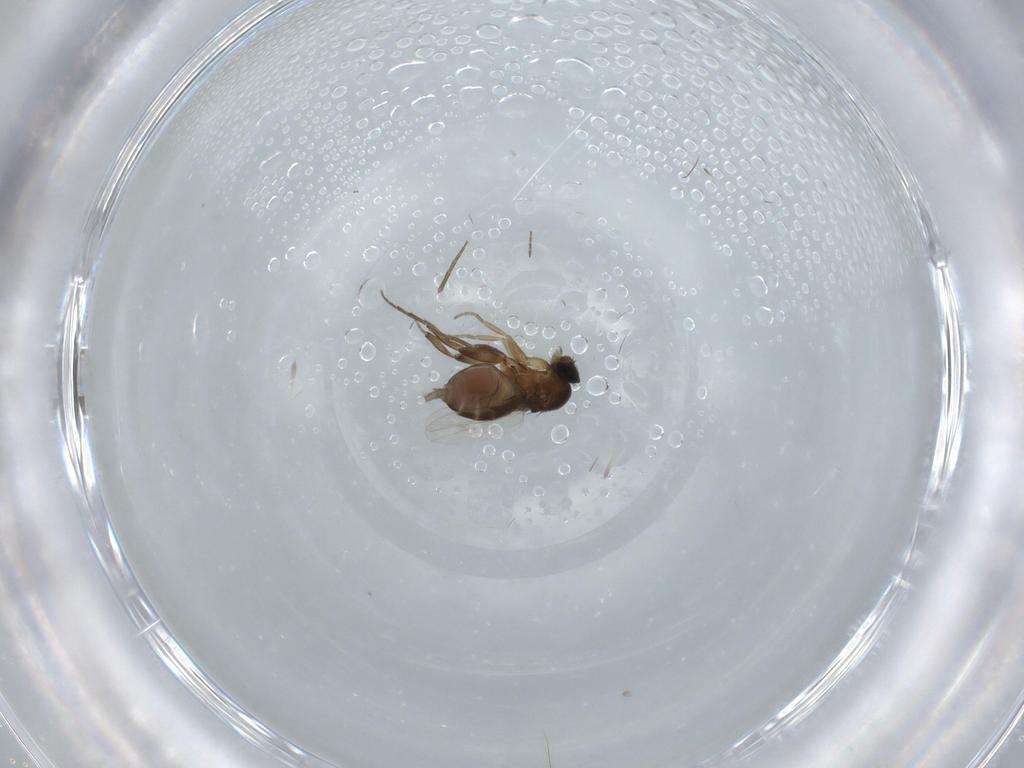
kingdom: Animalia
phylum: Arthropoda
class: Insecta
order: Diptera
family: Phoridae
